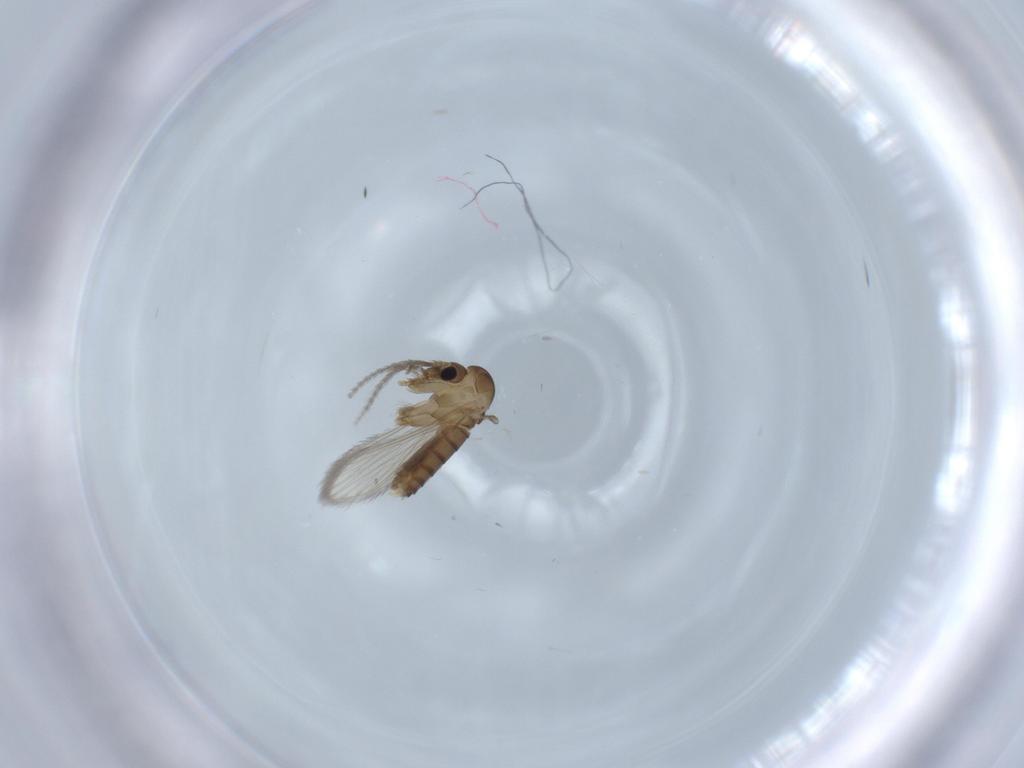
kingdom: Animalia
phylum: Arthropoda
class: Insecta
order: Diptera
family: Psychodidae
